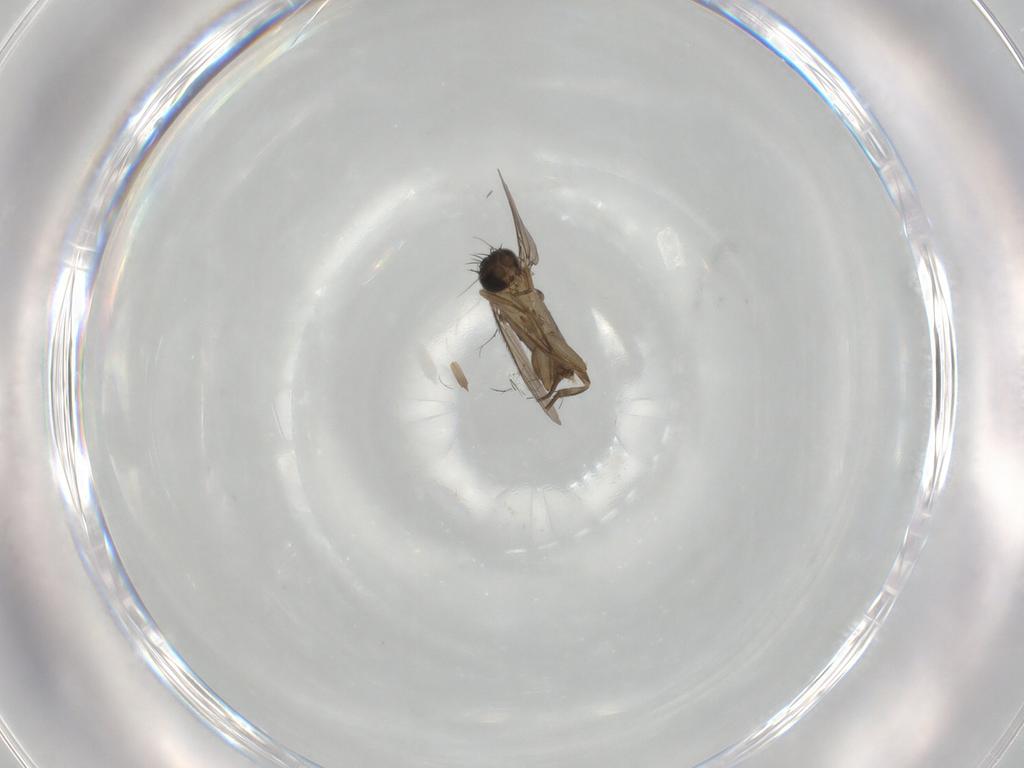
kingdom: Animalia
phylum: Arthropoda
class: Insecta
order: Diptera
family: Phoridae
